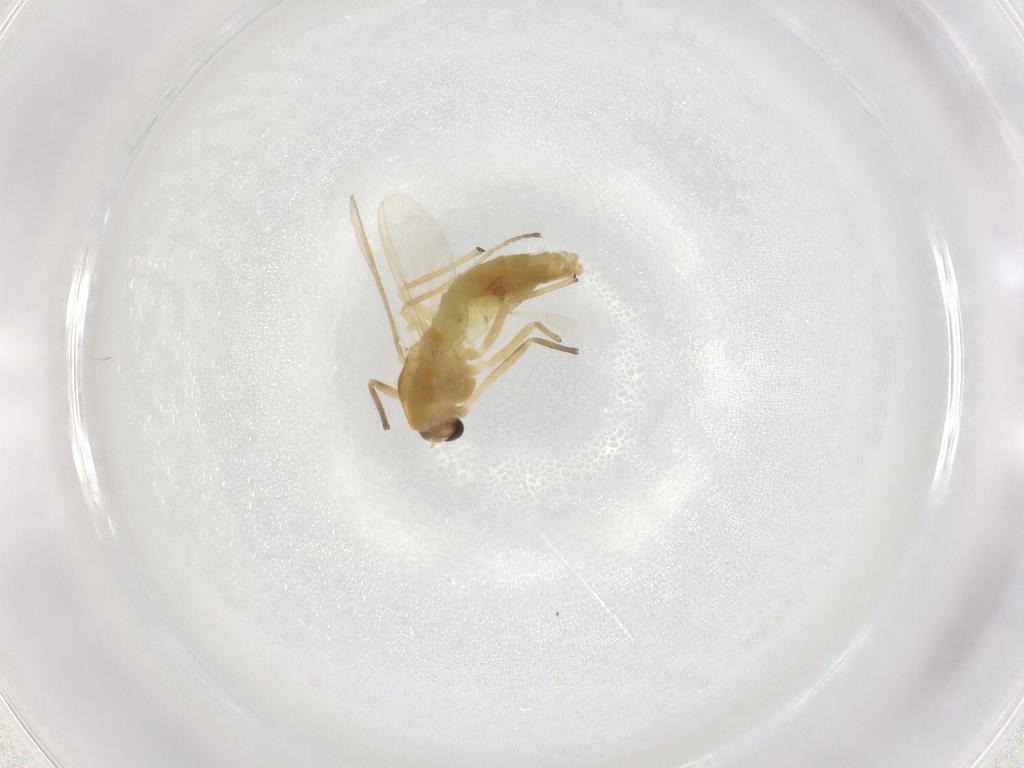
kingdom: Animalia
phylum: Arthropoda
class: Insecta
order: Diptera
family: Chironomidae
